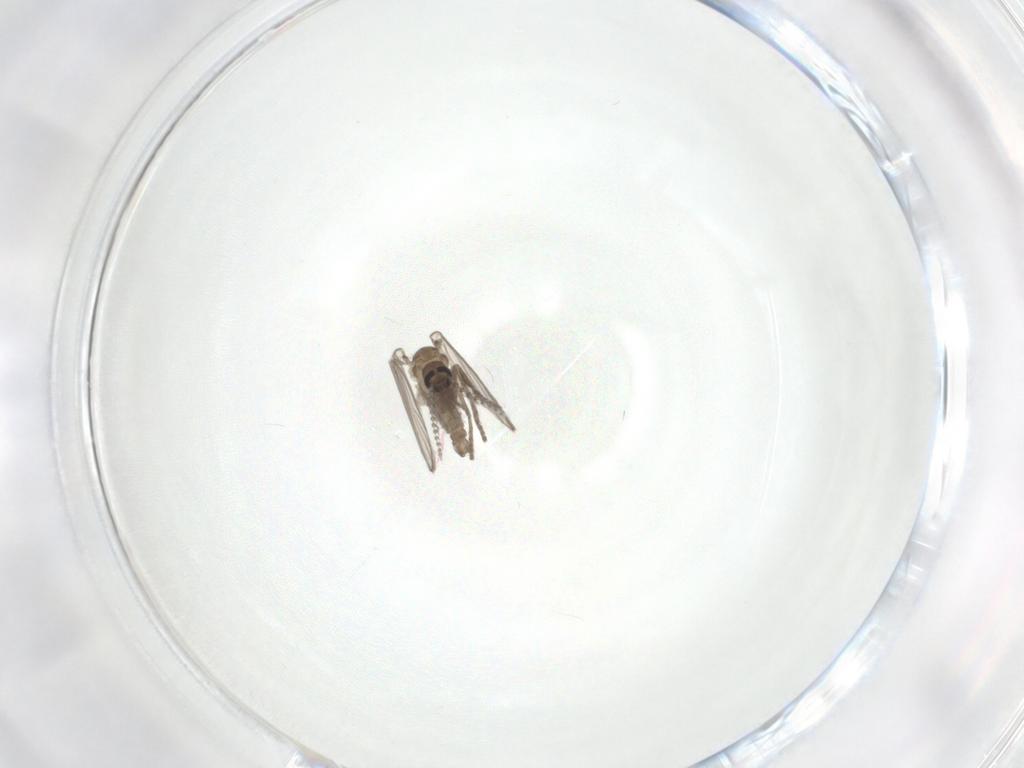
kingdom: Animalia
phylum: Arthropoda
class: Insecta
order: Diptera
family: Psychodidae
